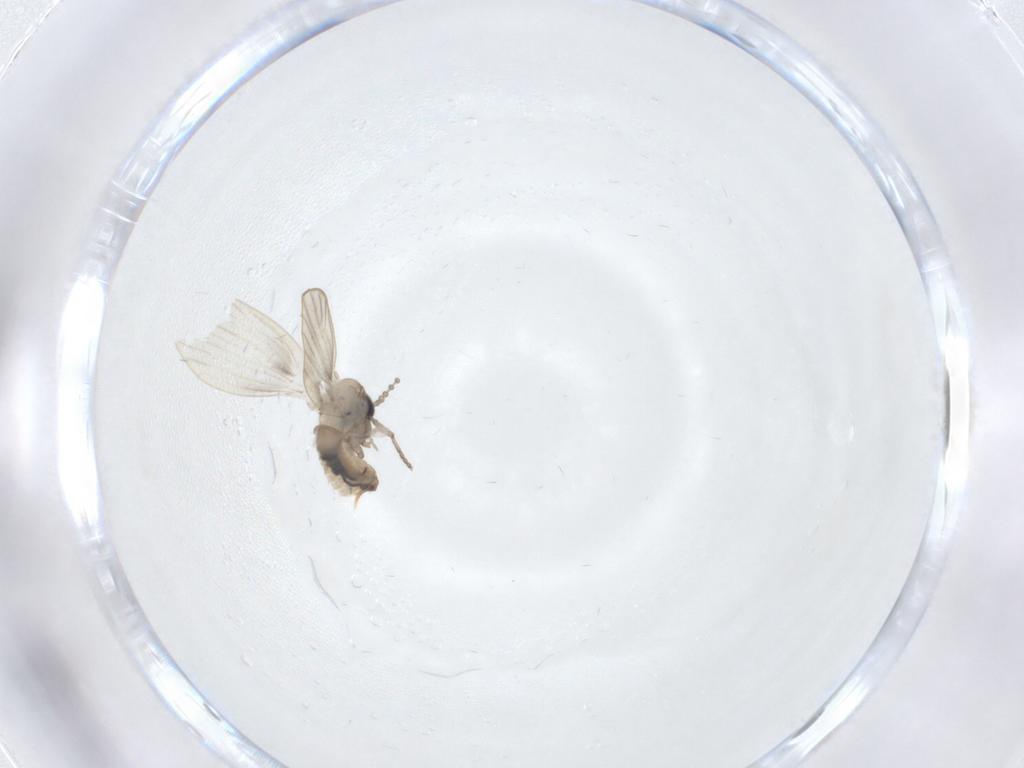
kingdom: Animalia
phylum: Arthropoda
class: Insecta
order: Diptera
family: Cecidomyiidae
